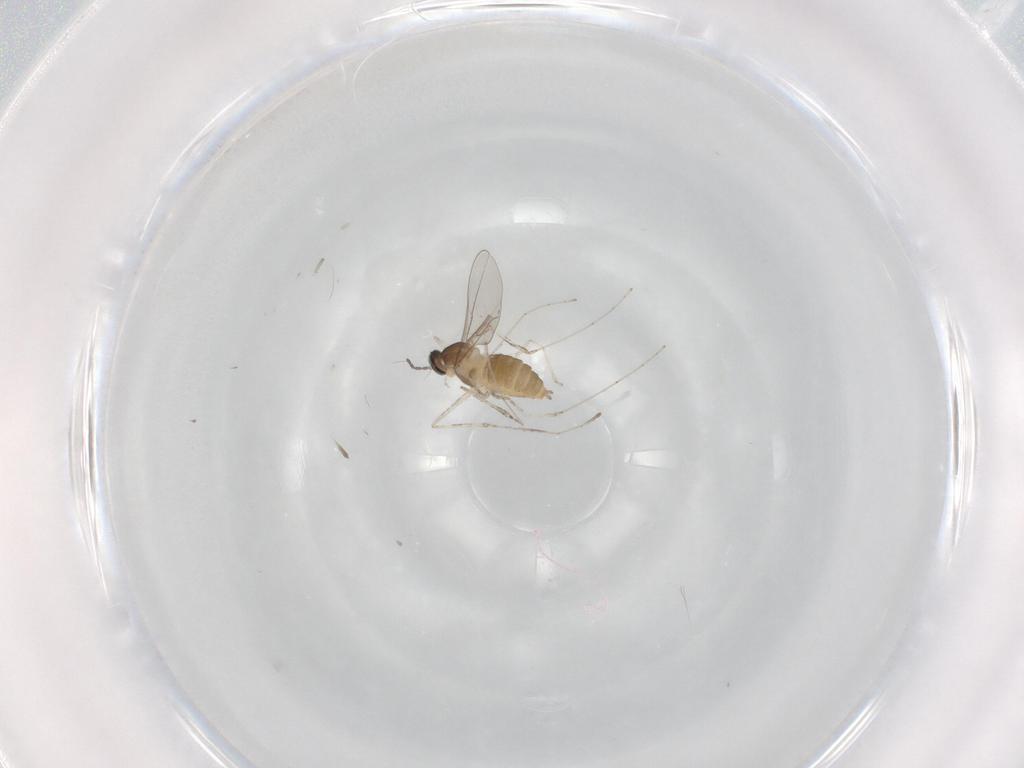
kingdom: Animalia
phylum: Arthropoda
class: Insecta
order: Diptera
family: Cecidomyiidae
